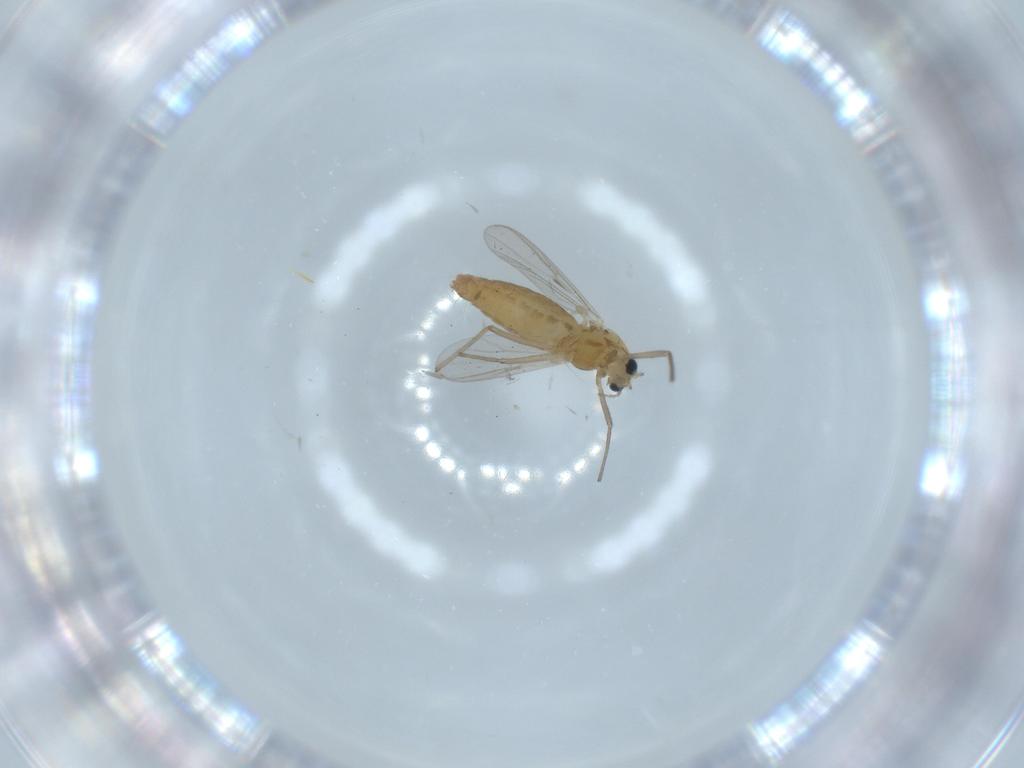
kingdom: Animalia
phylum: Arthropoda
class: Insecta
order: Diptera
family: Chironomidae
